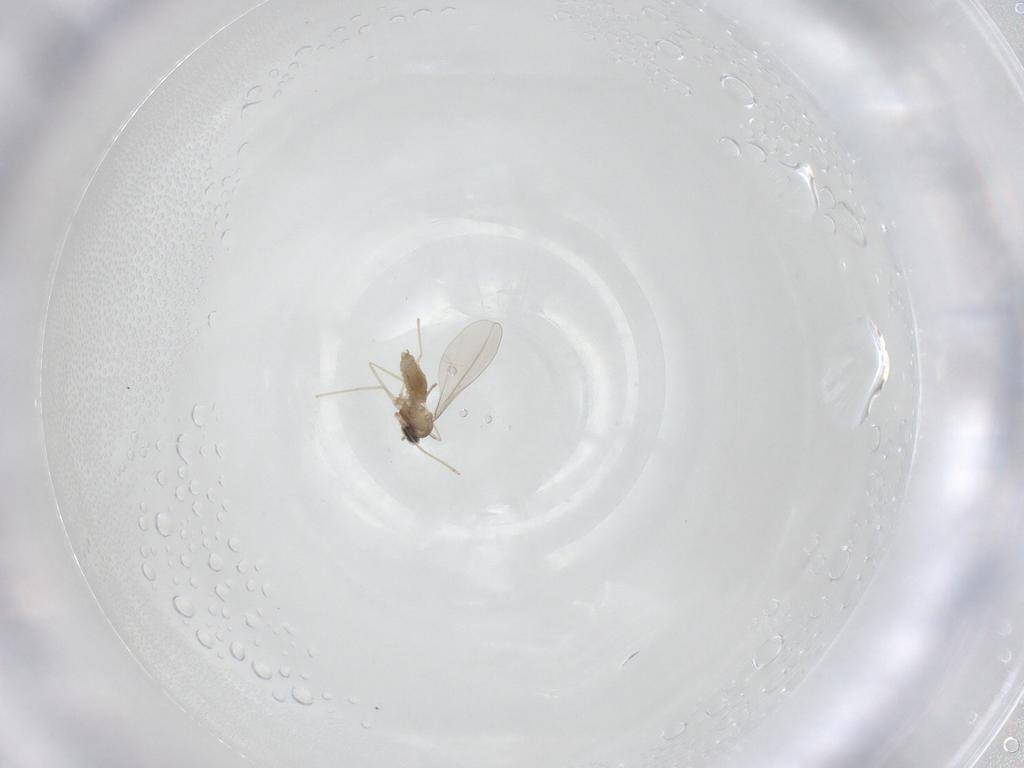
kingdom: Animalia
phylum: Arthropoda
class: Insecta
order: Diptera
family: Cecidomyiidae
